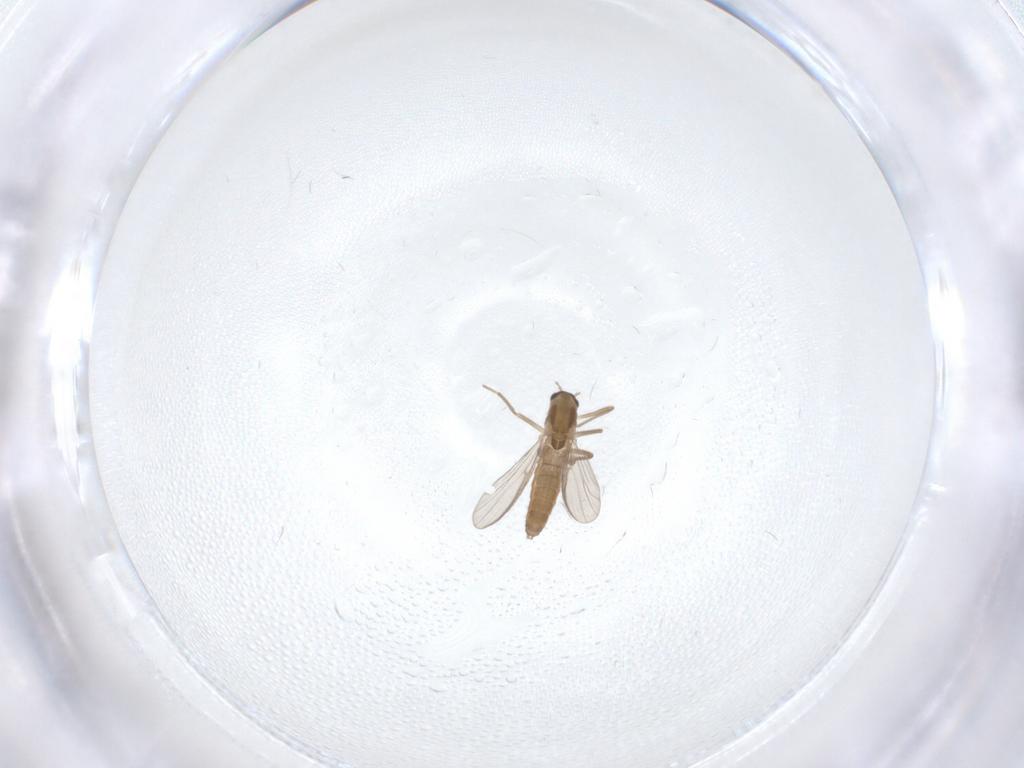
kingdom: Animalia
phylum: Arthropoda
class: Insecta
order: Diptera
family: Chironomidae
